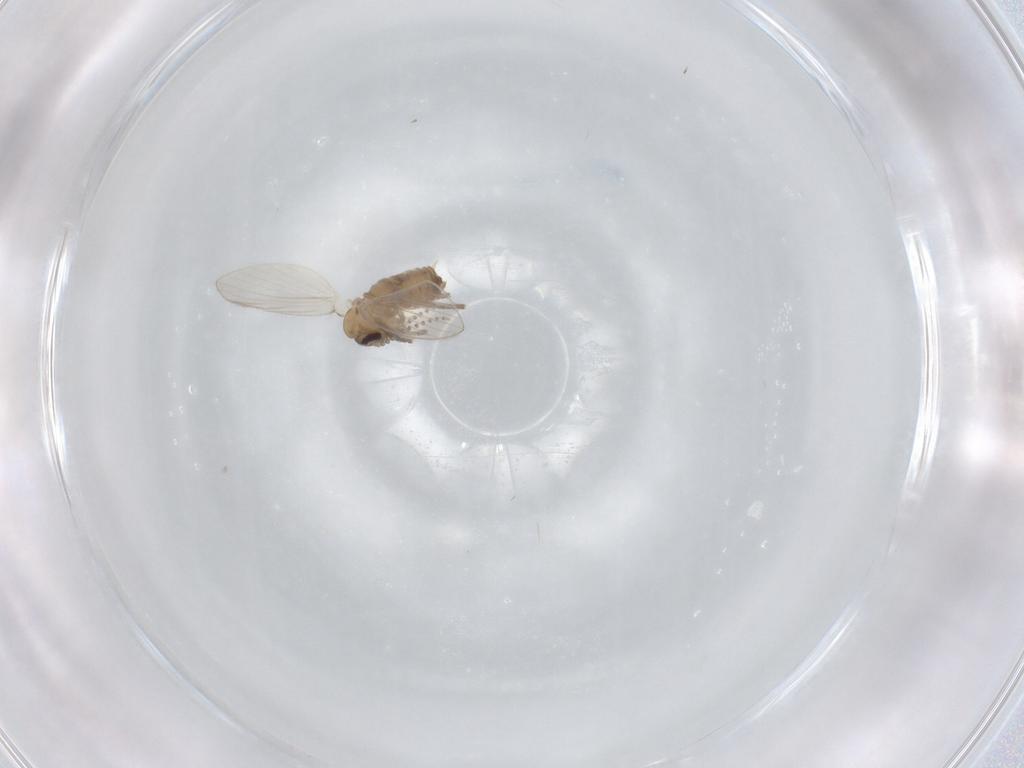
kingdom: Animalia
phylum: Arthropoda
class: Insecta
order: Diptera
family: Psychodidae
